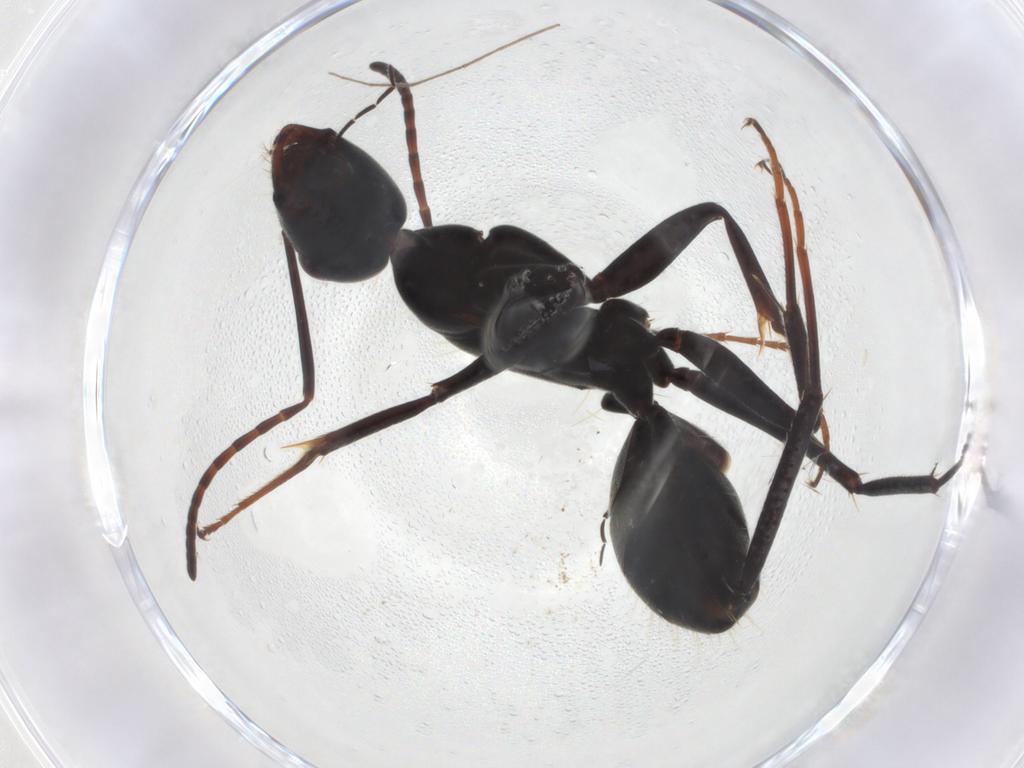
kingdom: Animalia
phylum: Arthropoda
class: Insecta
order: Hymenoptera
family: Formicidae
